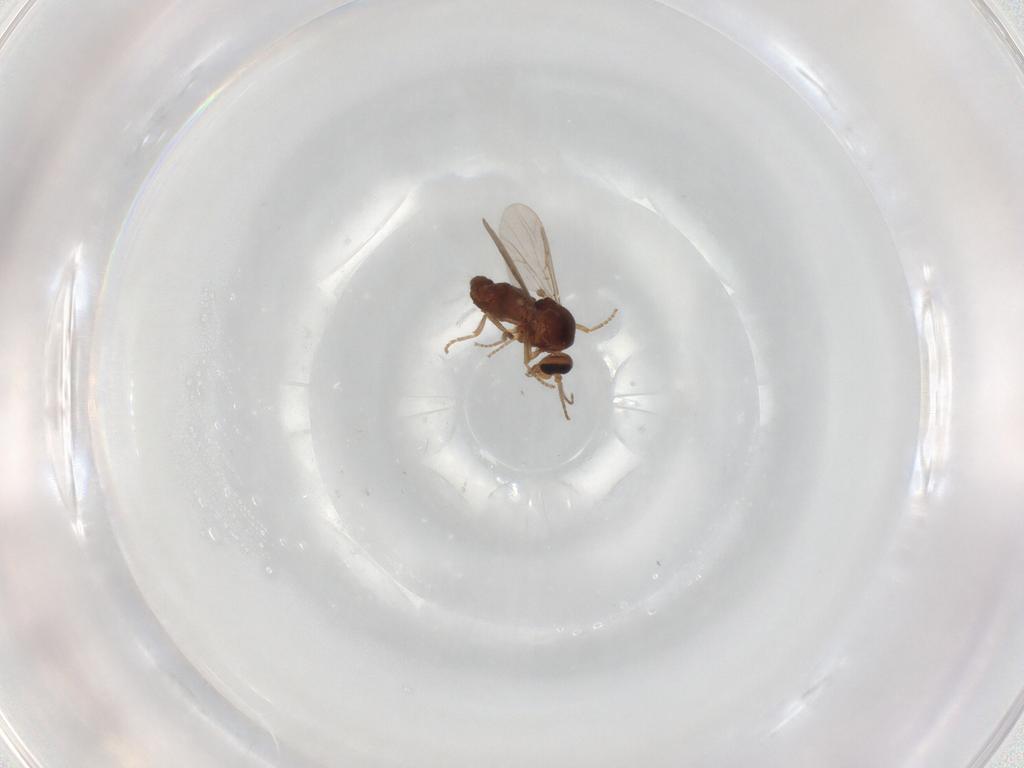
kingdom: Animalia
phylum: Arthropoda
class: Insecta
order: Diptera
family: Ceratopogonidae
